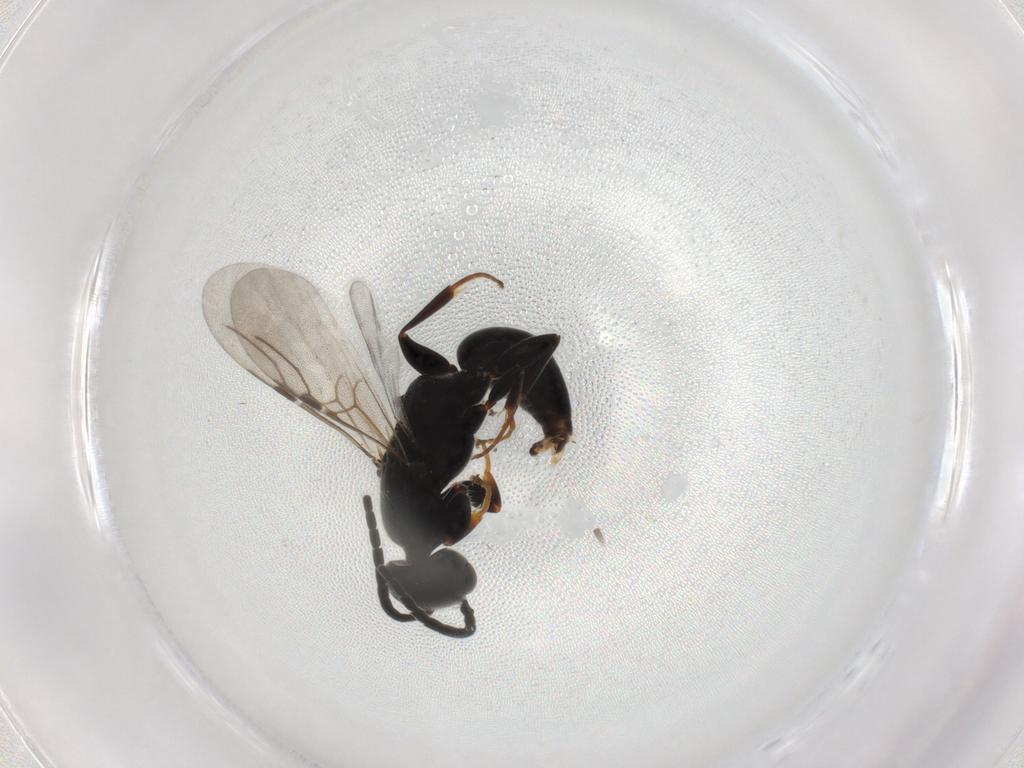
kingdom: Animalia
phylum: Arthropoda
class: Insecta
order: Hymenoptera
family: Bethylidae
